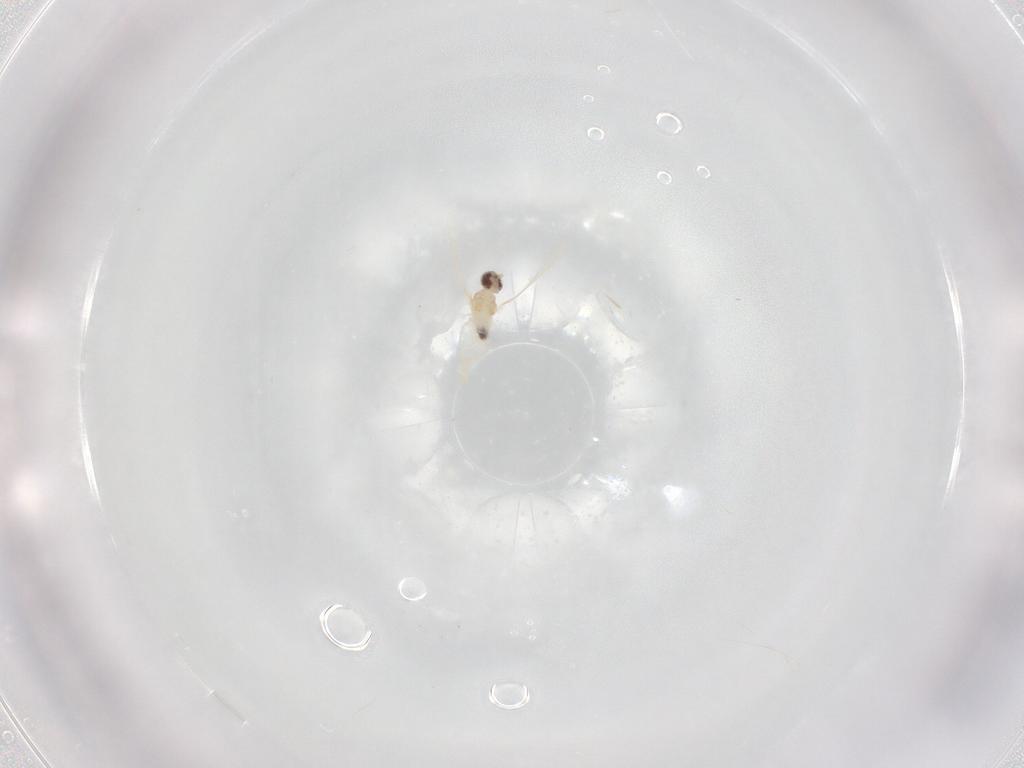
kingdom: Animalia
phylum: Arthropoda
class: Insecta
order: Diptera
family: Cecidomyiidae
